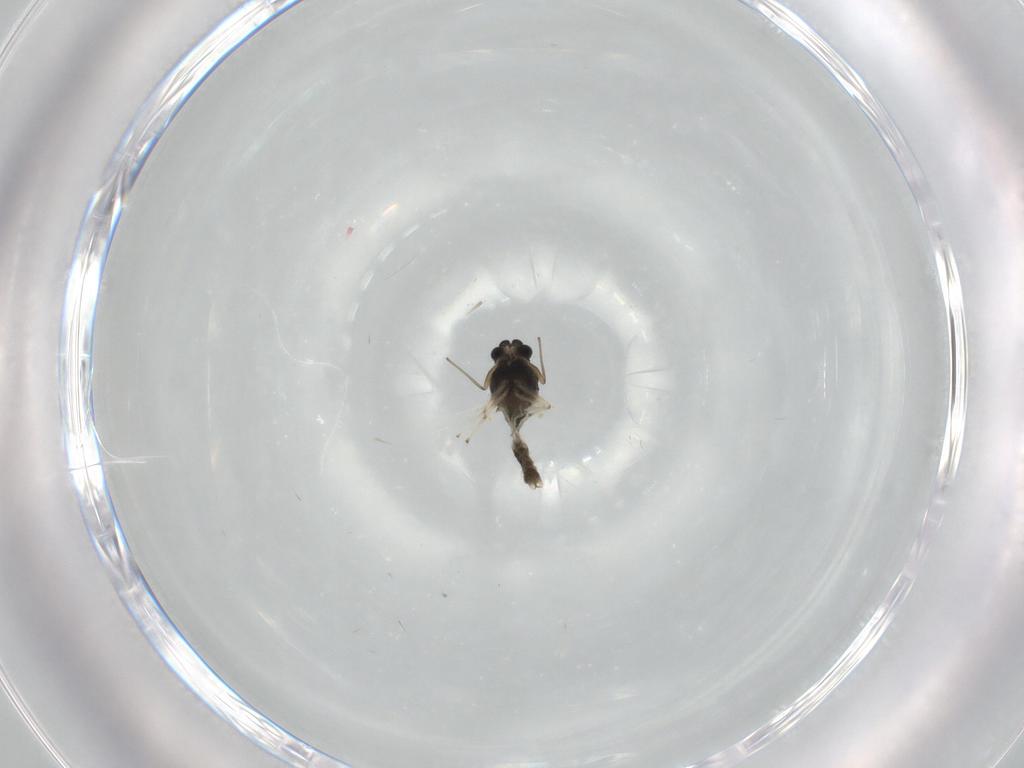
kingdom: Animalia
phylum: Arthropoda
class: Insecta
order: Diptera
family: Chironomidae
